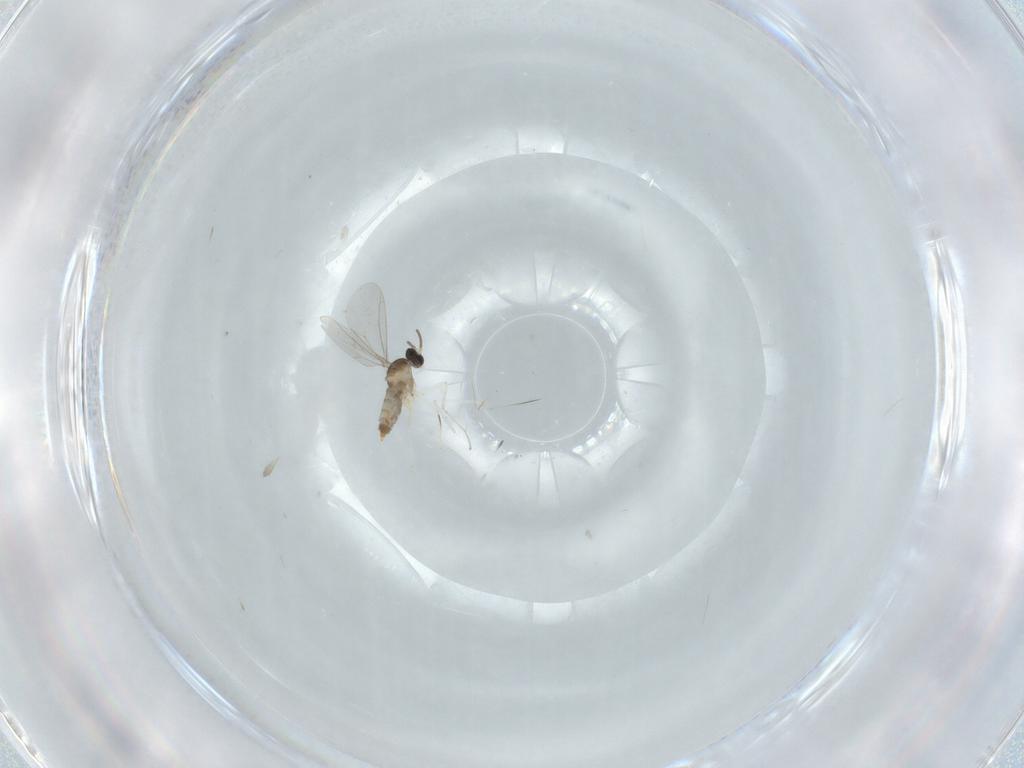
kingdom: Animalia
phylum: Arthropoda
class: Insecta
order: Diptera
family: Cecidomyiidae
